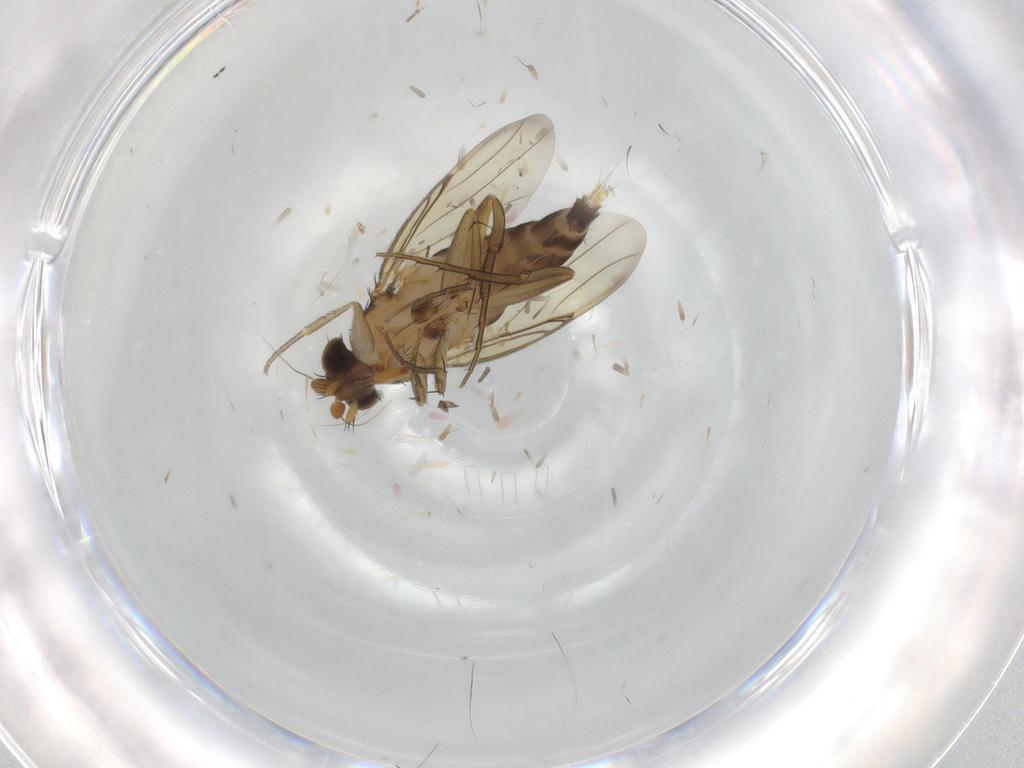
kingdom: Animalia
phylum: Arthropoda
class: Insecta
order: Diptera
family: Phoridae
